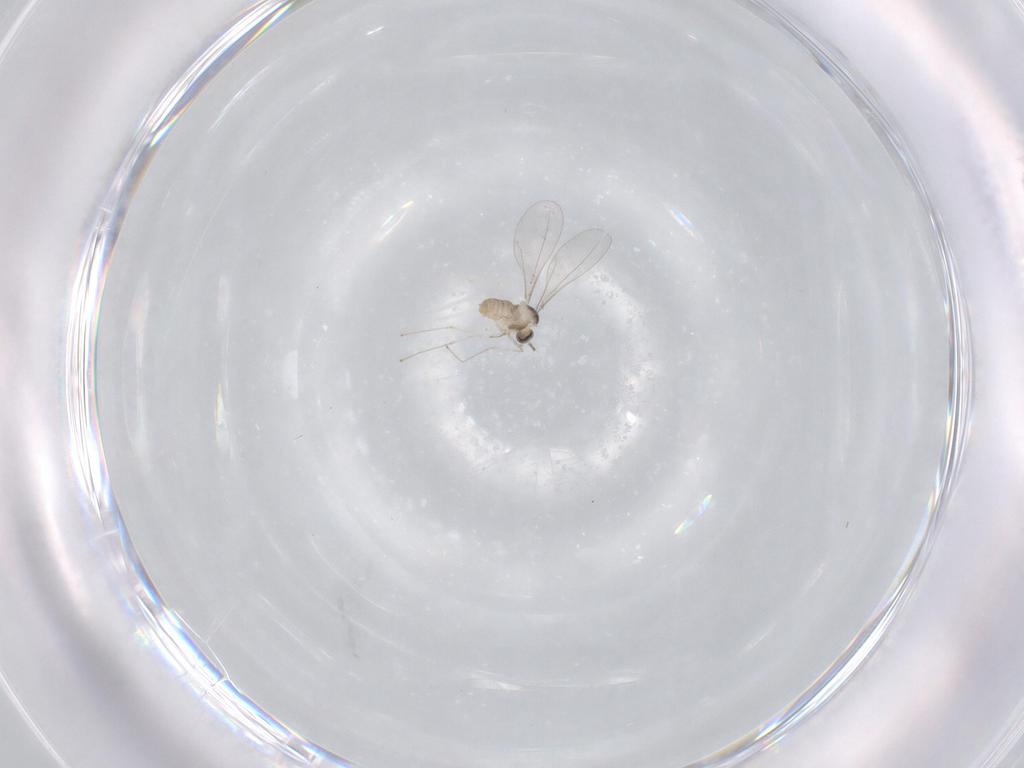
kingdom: Animalia
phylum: Arthropoda
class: Insecta
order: Diptera
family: Cecidomyiidae
